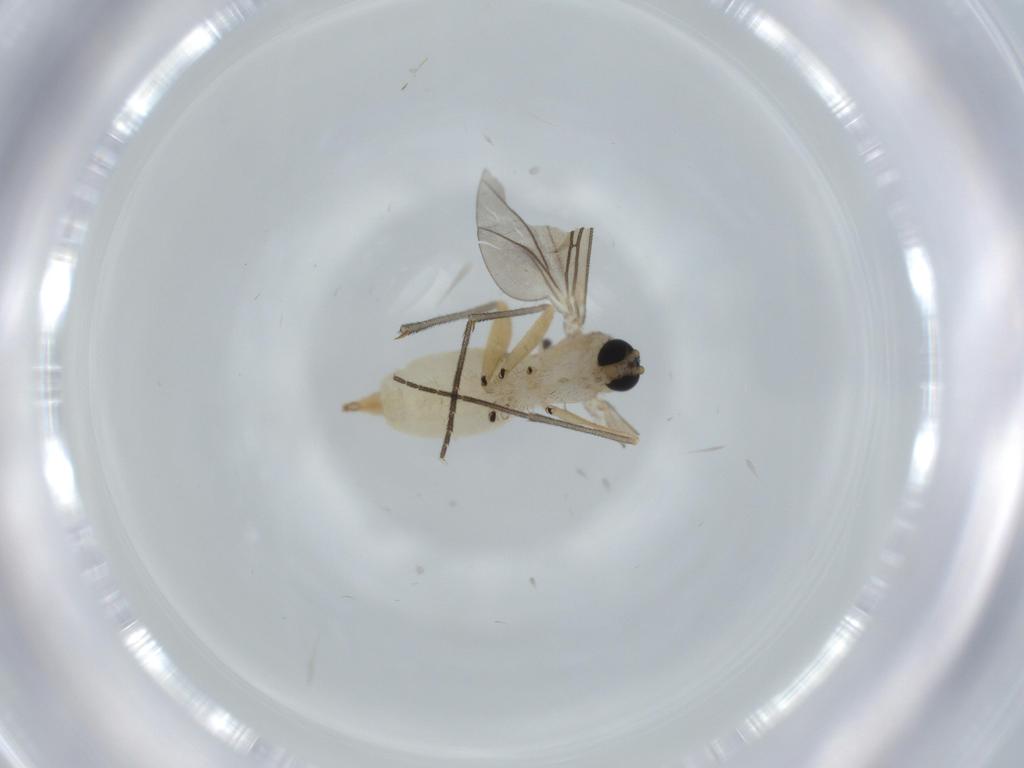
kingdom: Animalia
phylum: Arthropoda
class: Insecta
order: Diptera
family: Sciaridae
